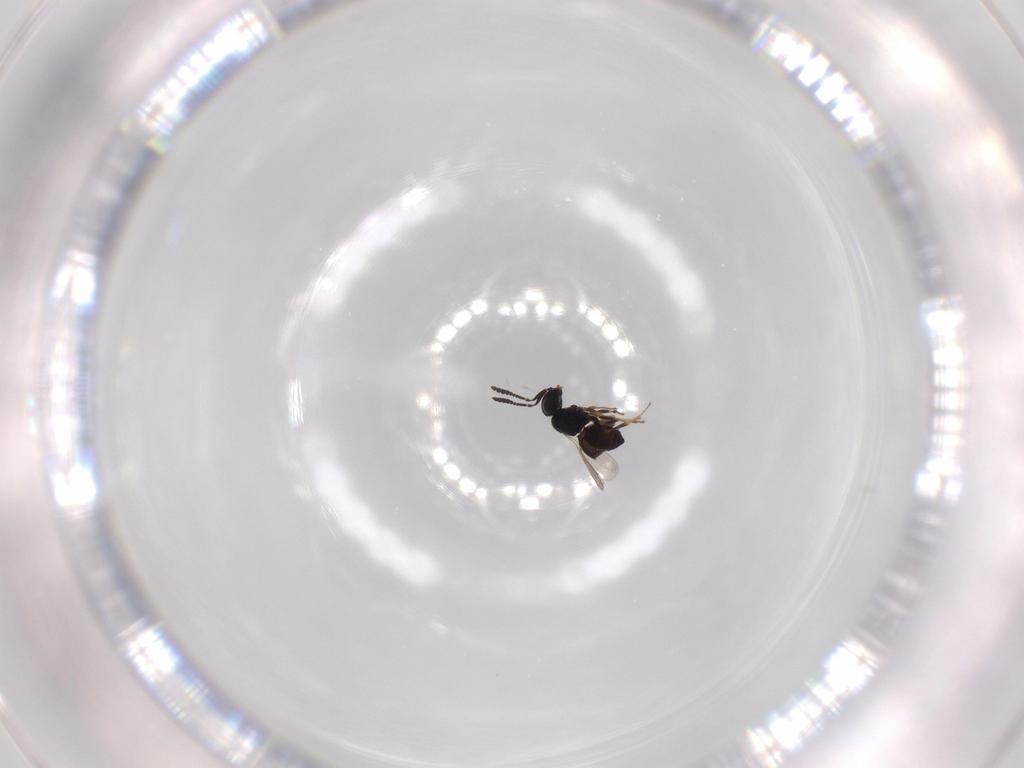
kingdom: Animalia
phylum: Arthropoda
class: Insecta
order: Hymenoptera
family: Scelionidae
